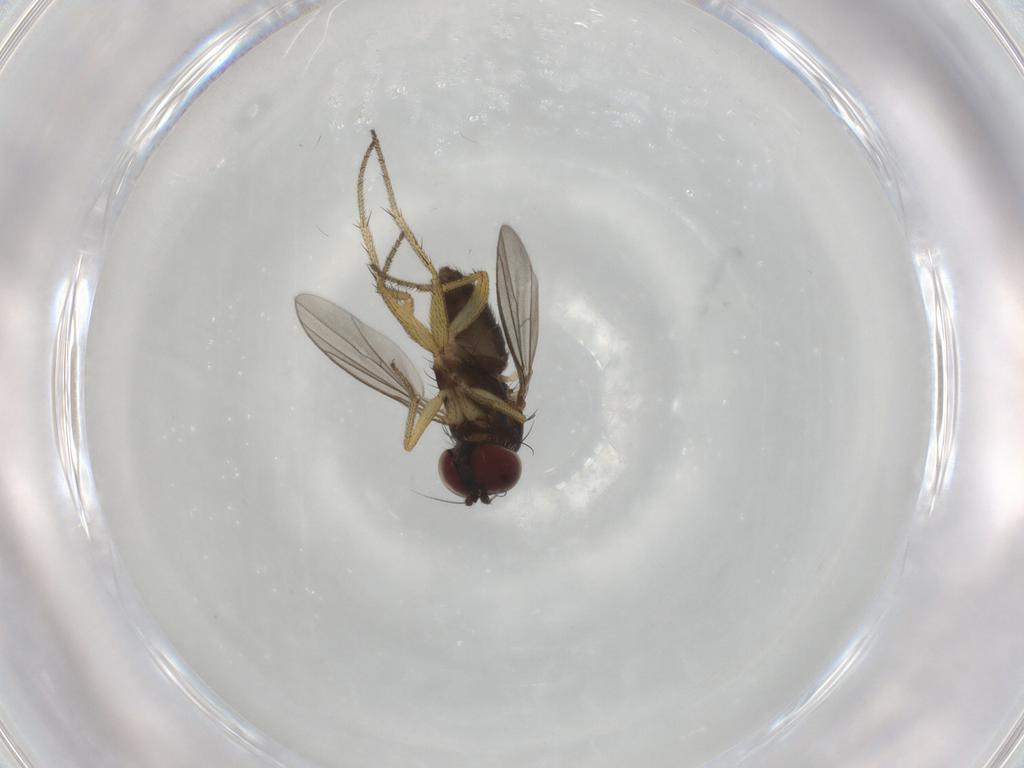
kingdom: Animalia
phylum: Arthropoda
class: Insecta
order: Diptera
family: Dolichopodidae
